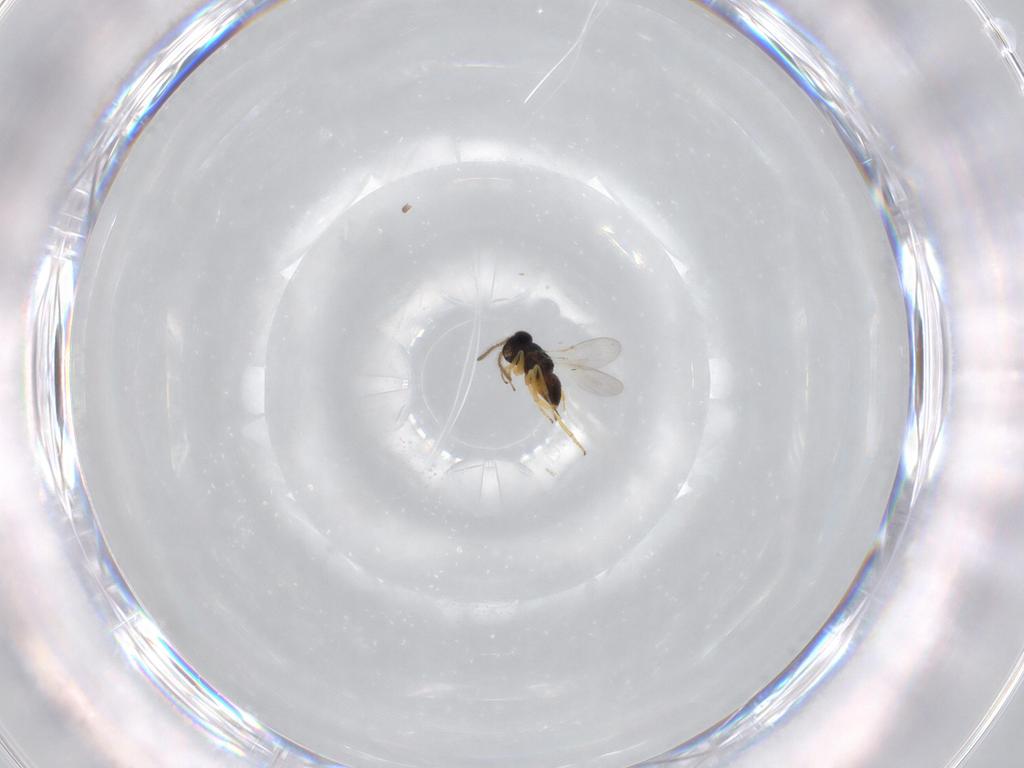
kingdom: Animalia
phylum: Arthropoda
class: Insecta
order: Hymenoptera
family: Encyrtidae
